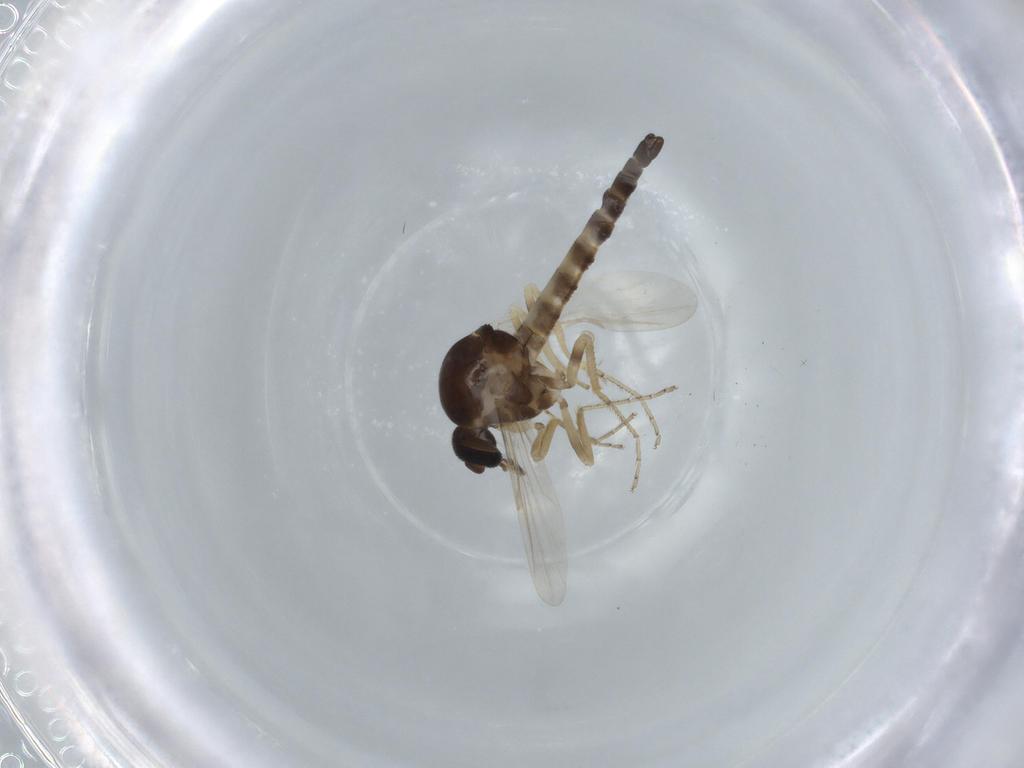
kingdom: Animalia
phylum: Arthropoda
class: Insecta
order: Diptera
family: Ceratopogonidae
